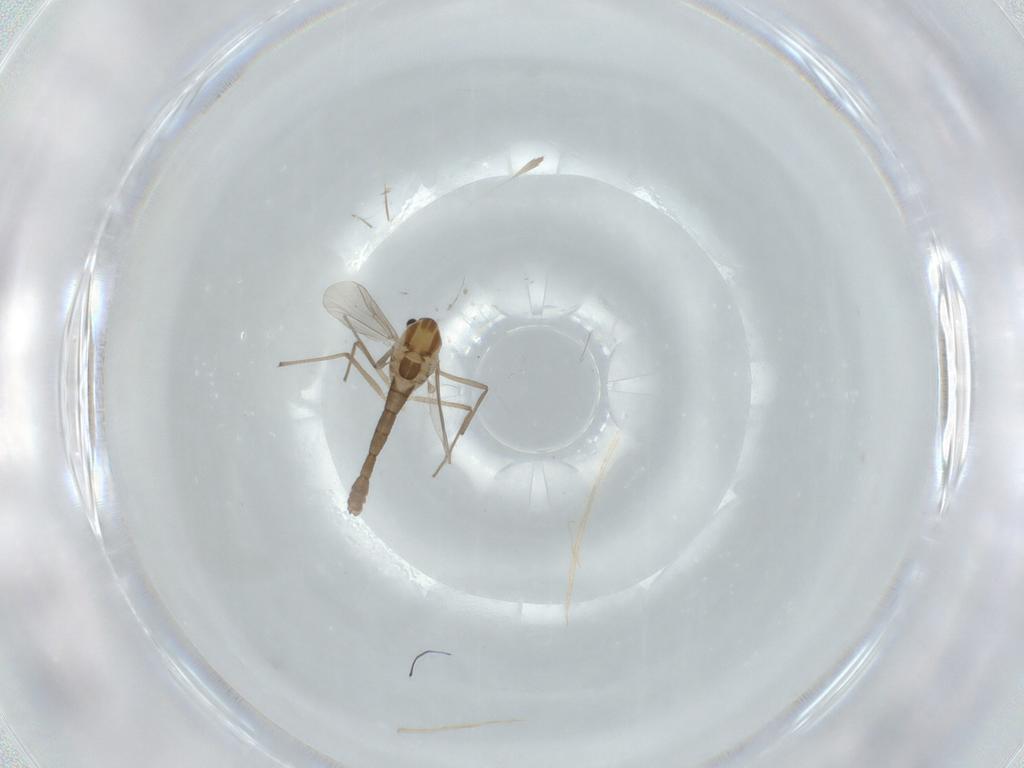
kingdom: Animalia
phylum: Arthropoda
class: Insecta
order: Diptera
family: Chironomidae
